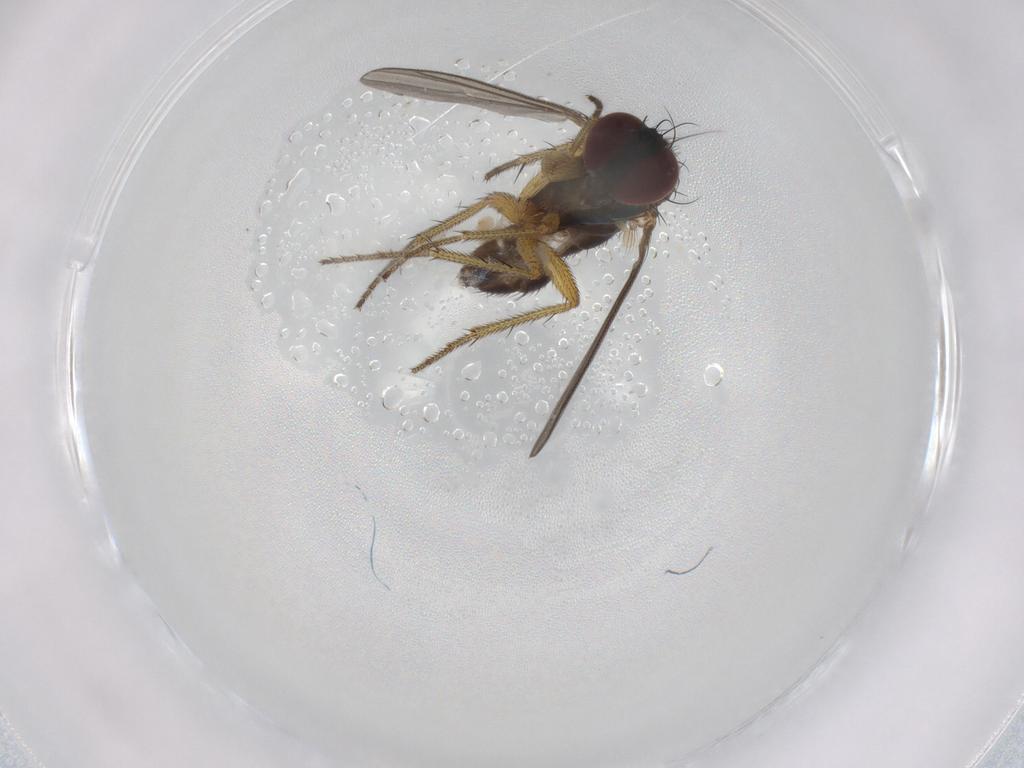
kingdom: Animalia
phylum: Arthropoda
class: Insecta
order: Diptera
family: Chironomidae
